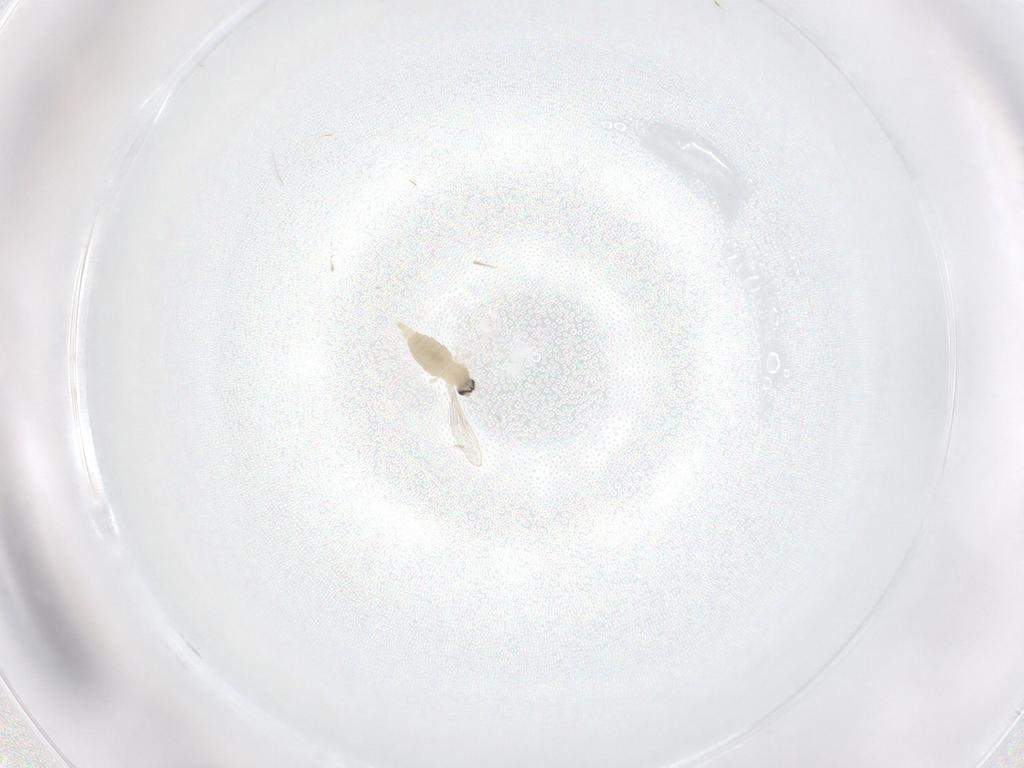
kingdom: Animalia
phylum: Arthropoda
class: Insecta
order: Diptera
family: Cecidomyiidae
